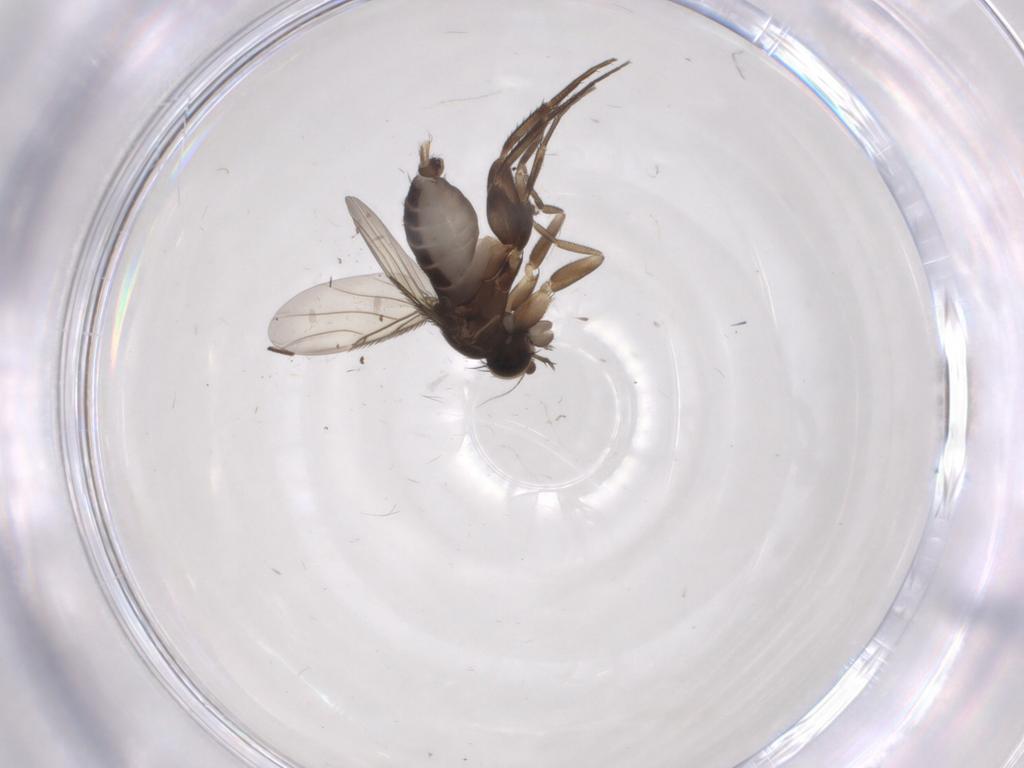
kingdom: Animalia
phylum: Arthropoda
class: Insecta
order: Diptera
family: Phoridae
